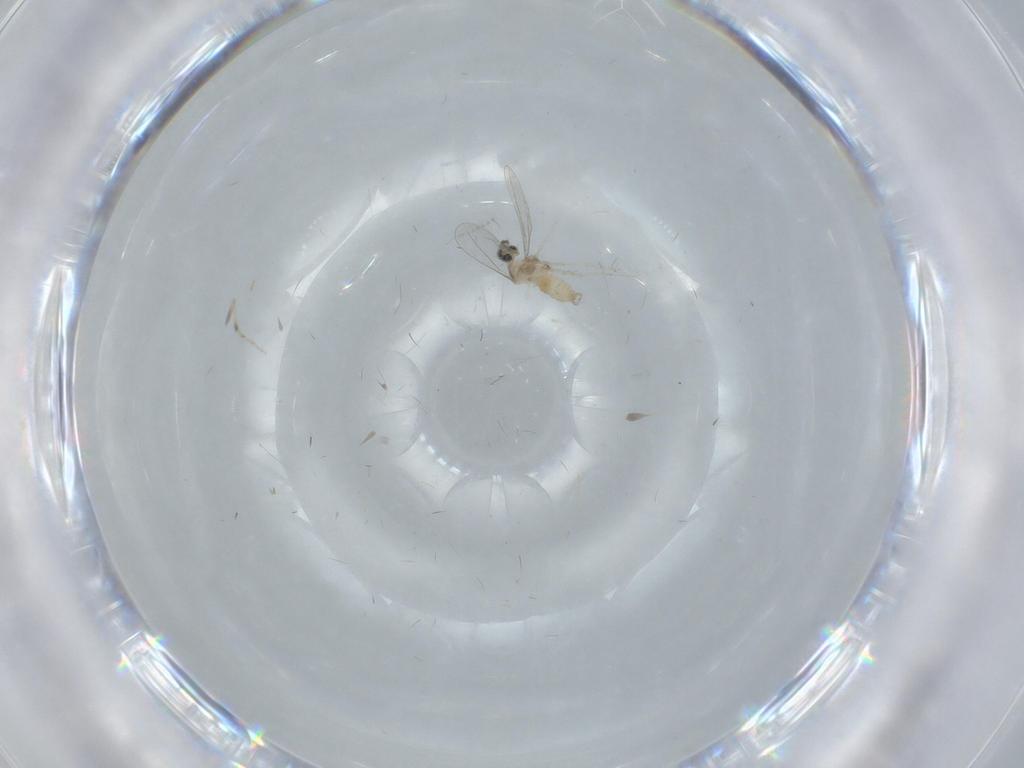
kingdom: Animalia
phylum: Arthropoda
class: Insecta
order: Diptera
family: Cecidomyiidae
